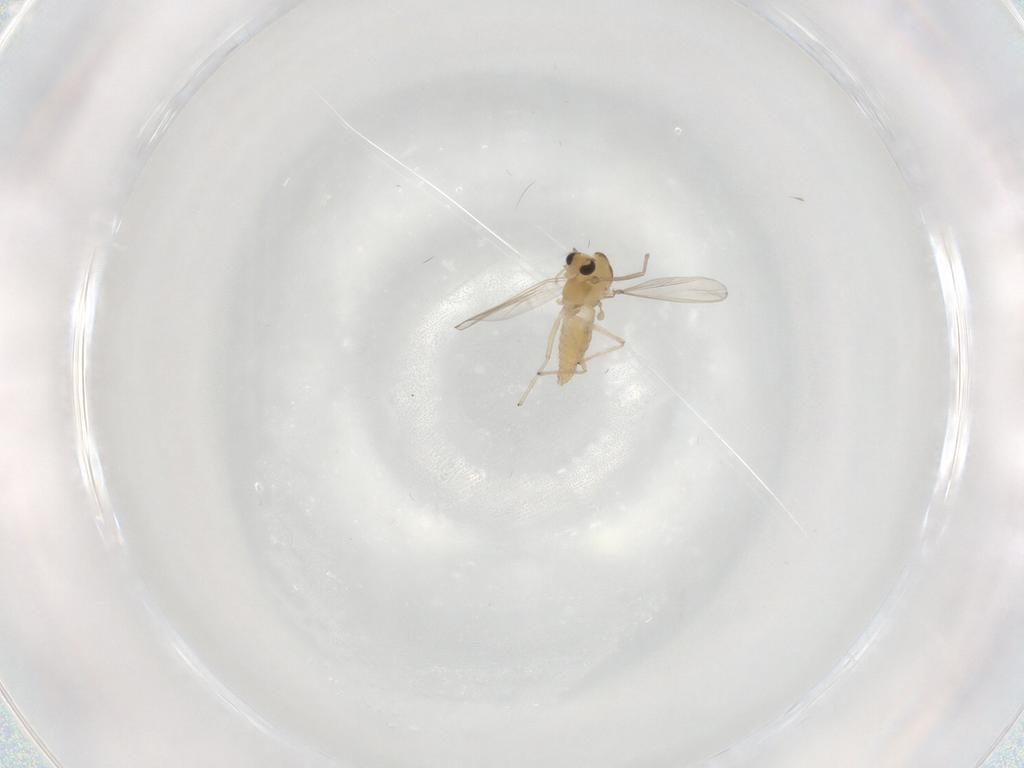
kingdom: Animalia
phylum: Arthropoda
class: Insecta
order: Diptera
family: Chironomidae
